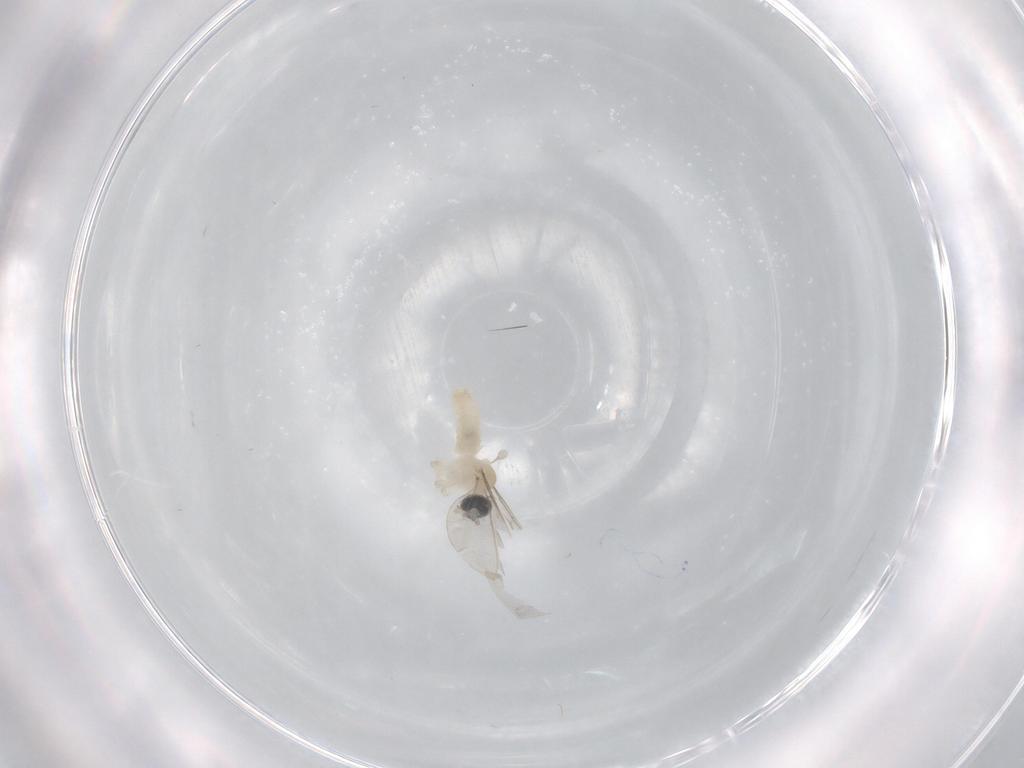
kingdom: Animalia
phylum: Arthropoda
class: Insecta
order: Diptera
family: Cecidomyiidae
